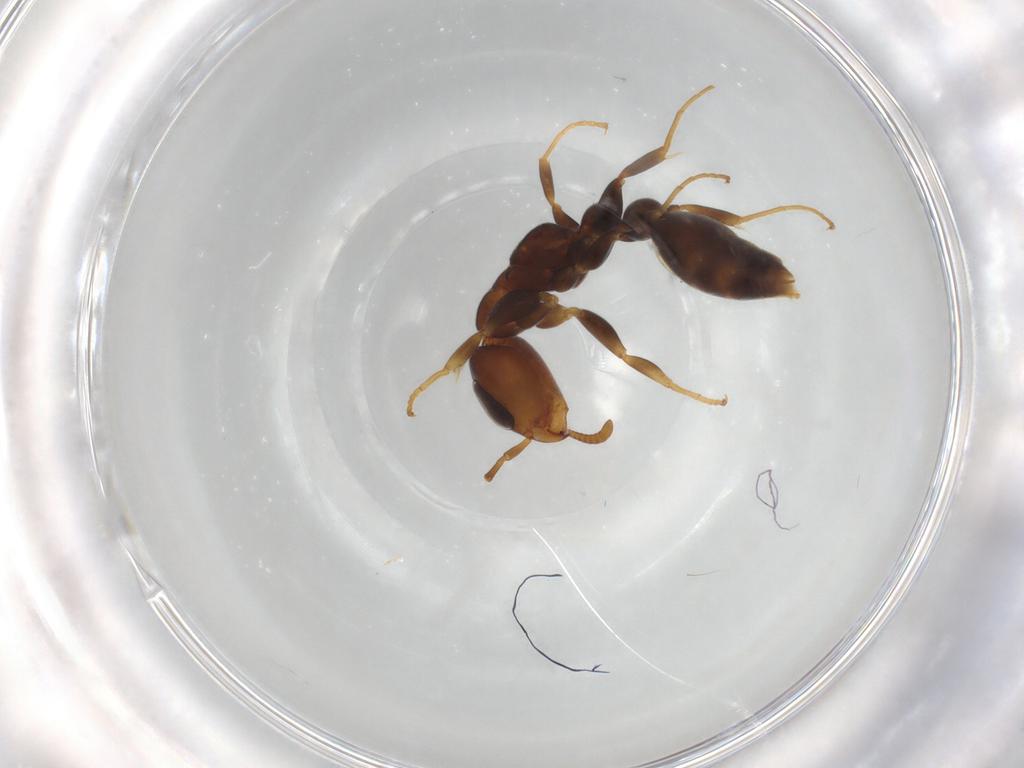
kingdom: Animalia
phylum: Arthropoda
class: Insecta
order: Hymenoptera
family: Formicidae
